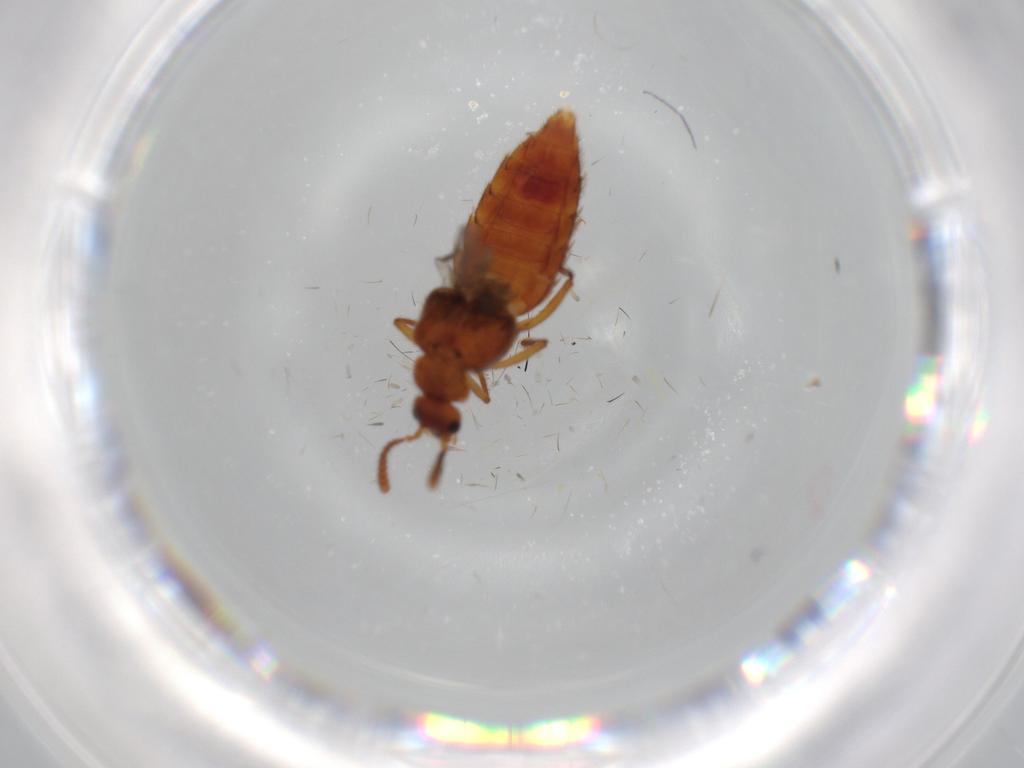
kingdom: Animalia
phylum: Arthropoda
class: Insecta
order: Coleoptera
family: Staphylinidae
